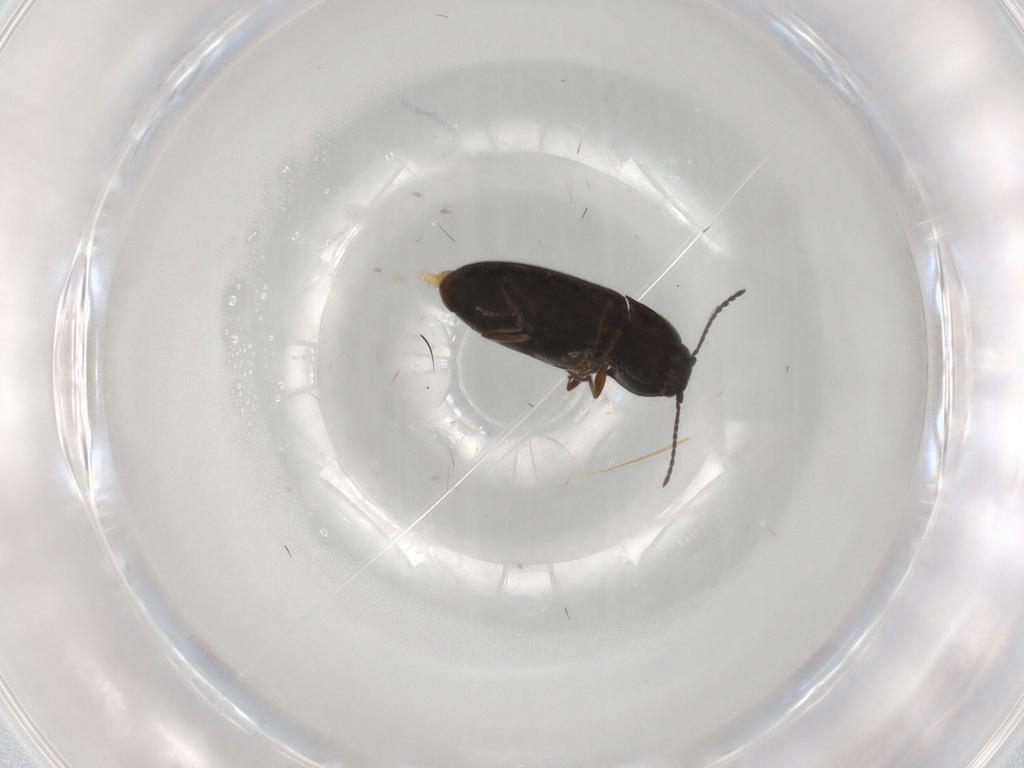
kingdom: Animalia
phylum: Arthropoda
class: Insecta
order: Coleoptera
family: Elateridae
